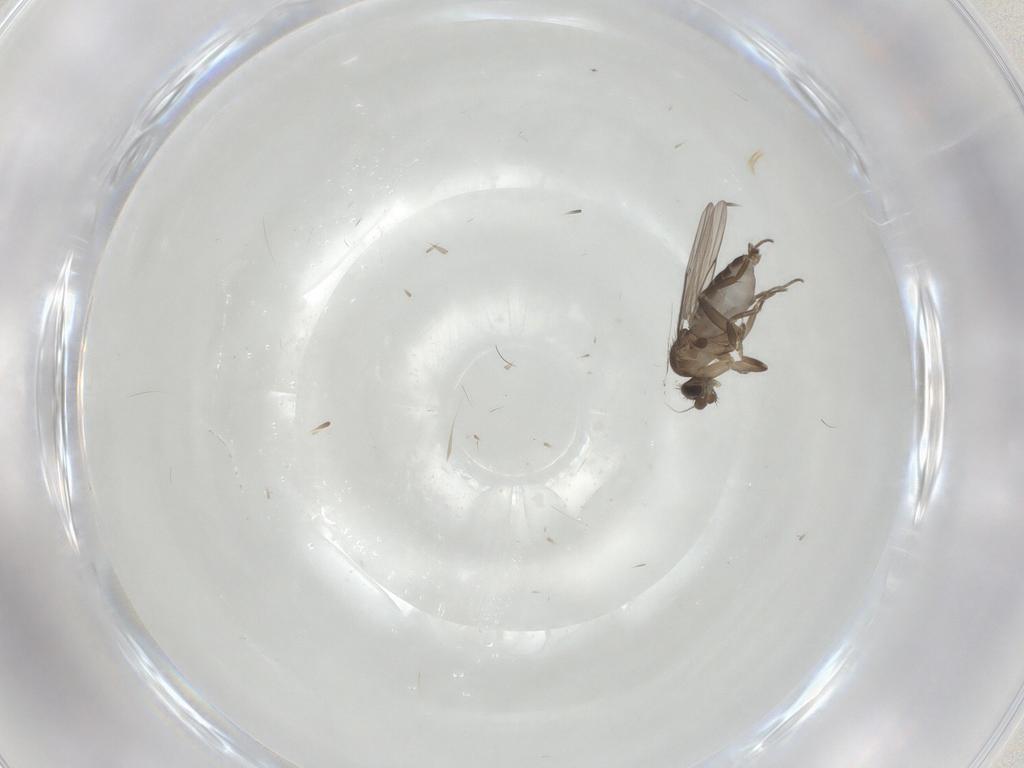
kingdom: Animalia
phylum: Arthropoda
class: Insecta
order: Diptera
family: Phoridae
